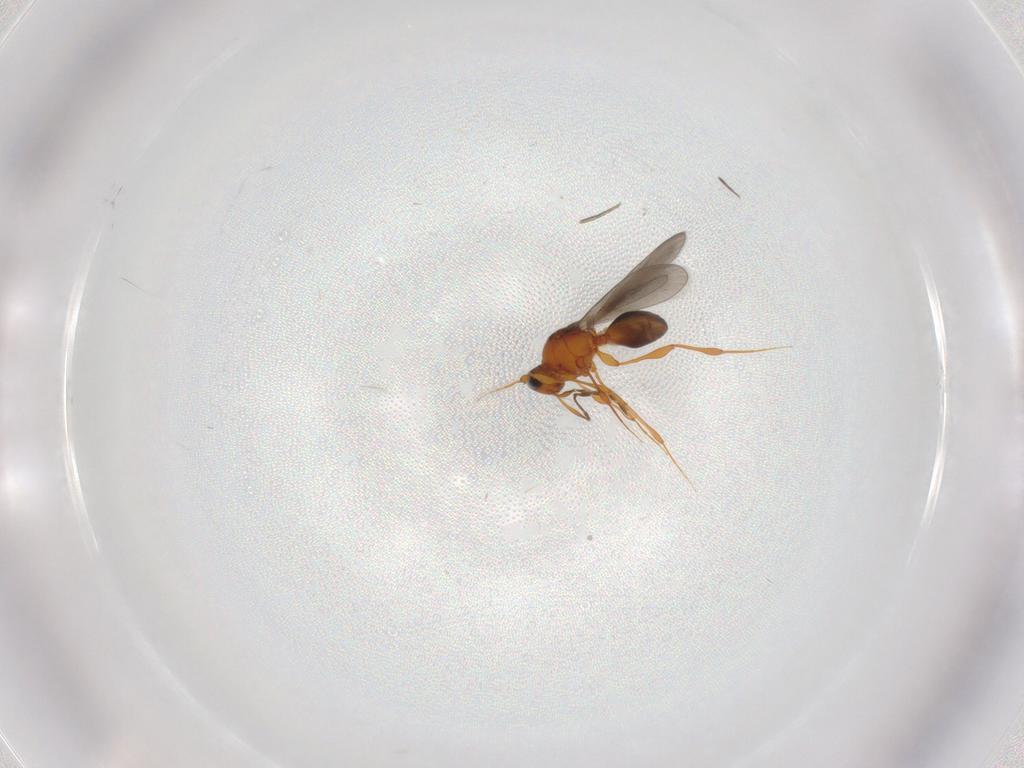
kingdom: Animalia
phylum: Arthropoda
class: Insecta
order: Hymenoptera
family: Platygastridae
